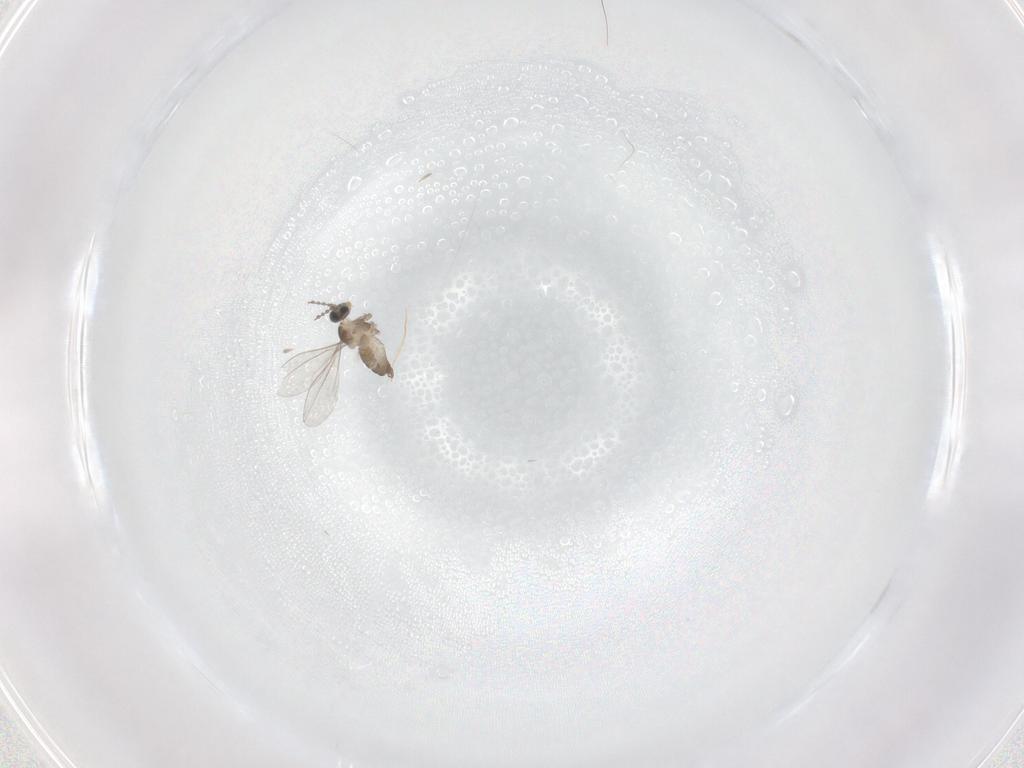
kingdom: Animalia
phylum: Arthropoda
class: Insecta
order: Diptera
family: Cecidomyiidae
